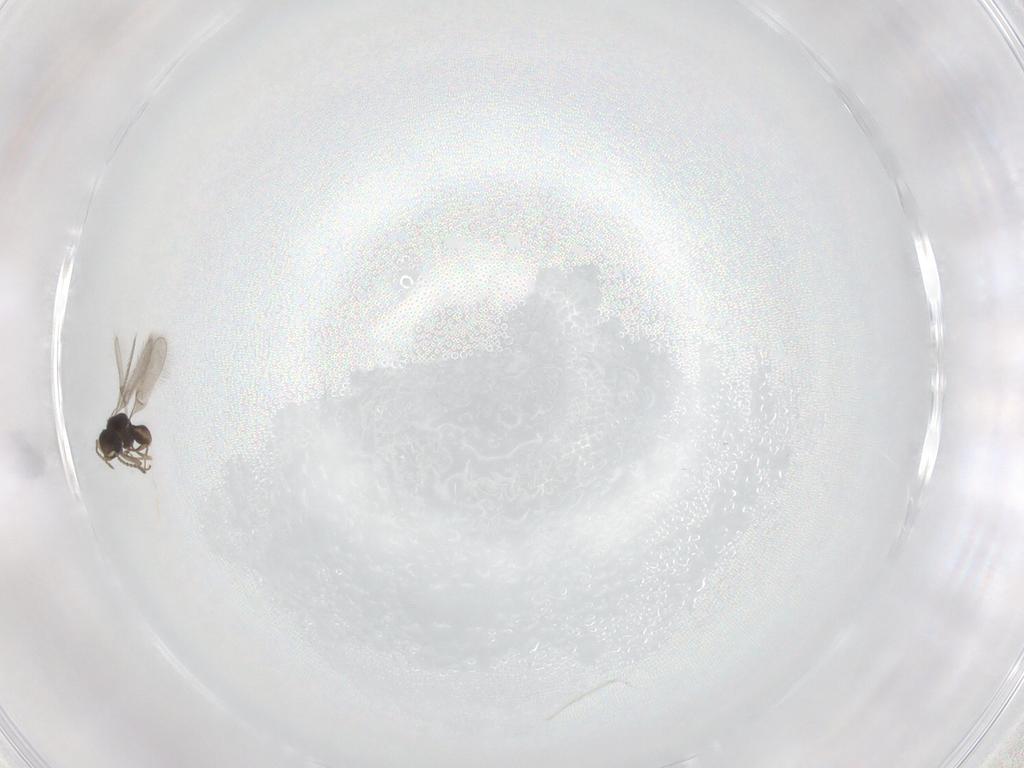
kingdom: Animalia
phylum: Arthropoda
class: Insecta
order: Hymenoptera
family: Scelionidae
